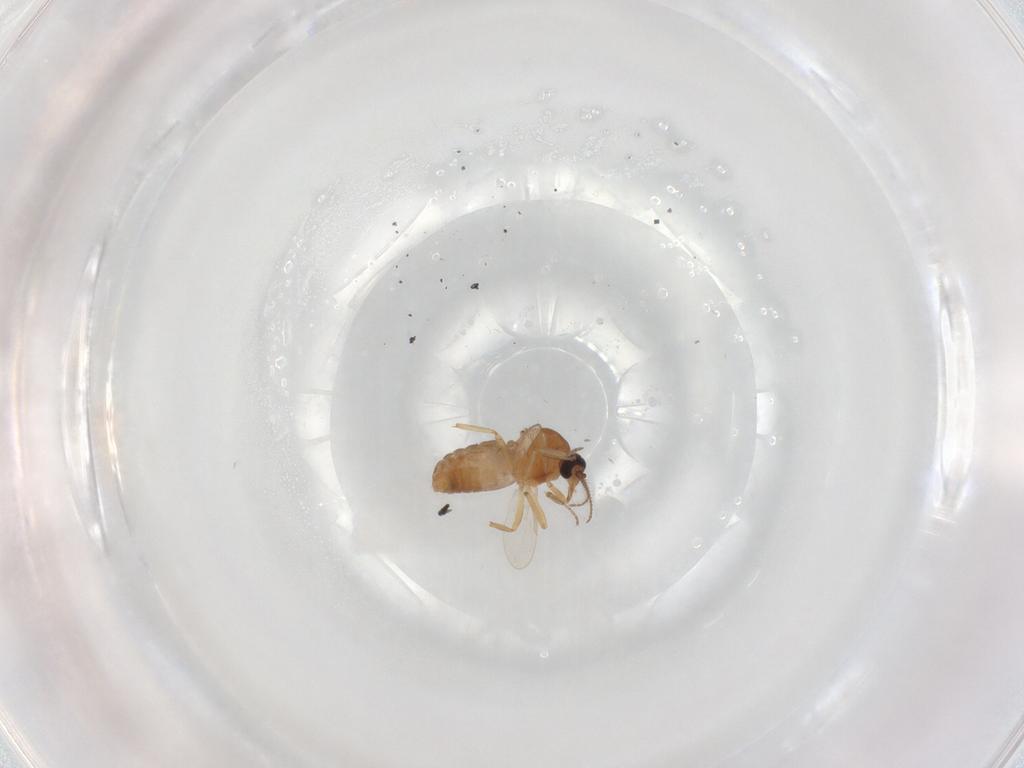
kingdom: Animalia
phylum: Arthropoda
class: Insecta
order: Diptera
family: Ceratopogonidae
